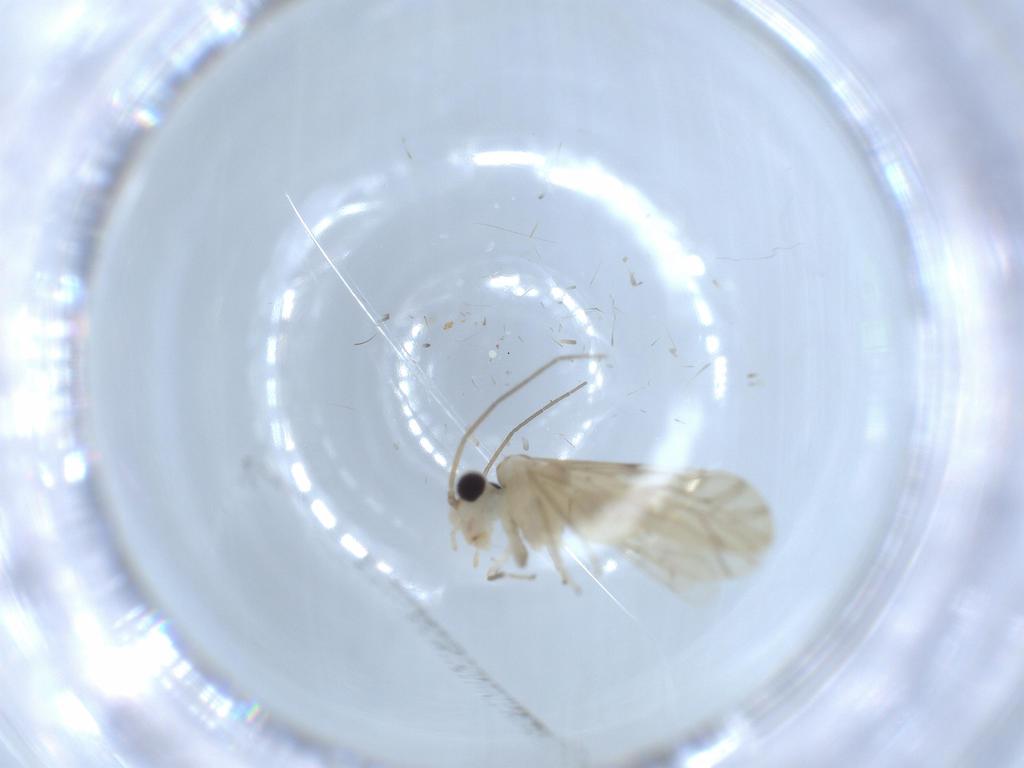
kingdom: Animalia
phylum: Arthropoda
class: Insecta
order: Psocodea
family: Caeciliusidae
